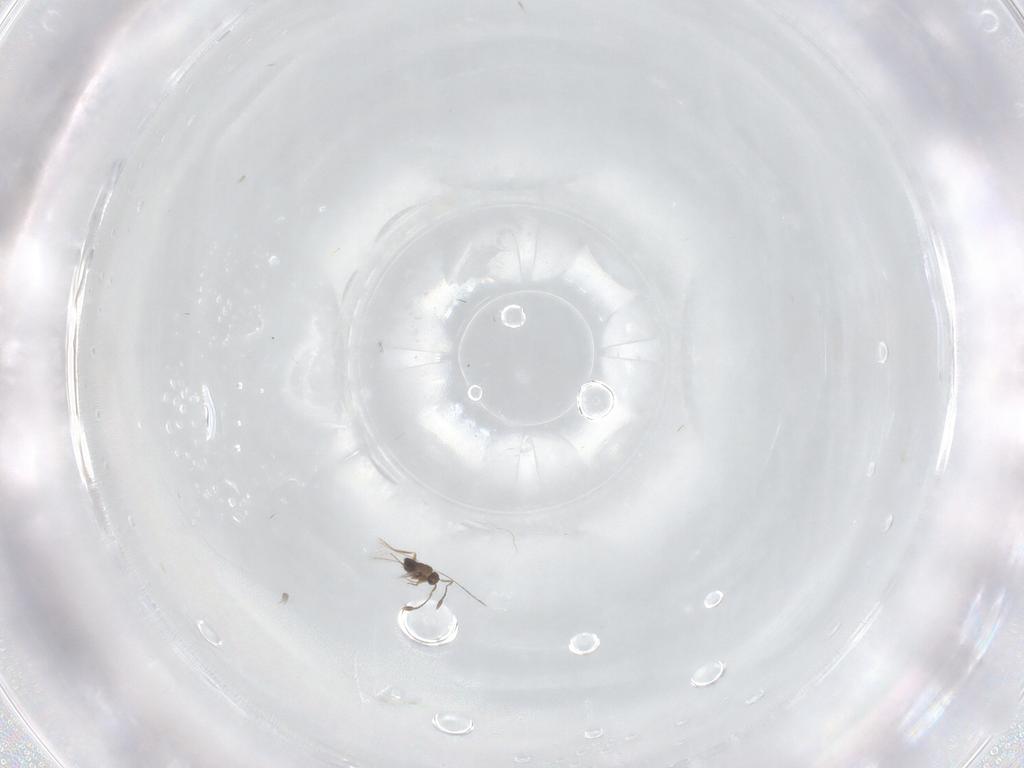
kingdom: Animalia
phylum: Arthropoda
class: Insecta
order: Hymenoptera
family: Mymaridae
